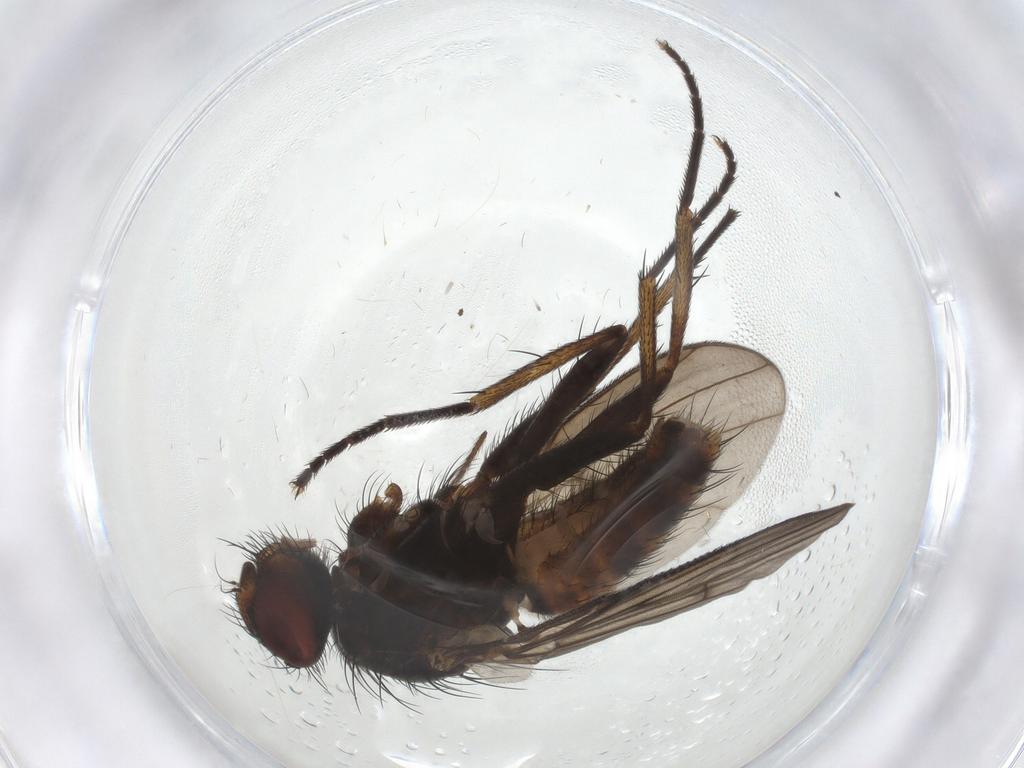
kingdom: Animalia
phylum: Arthropoda
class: Insecta
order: Diptera
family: Muscidae
